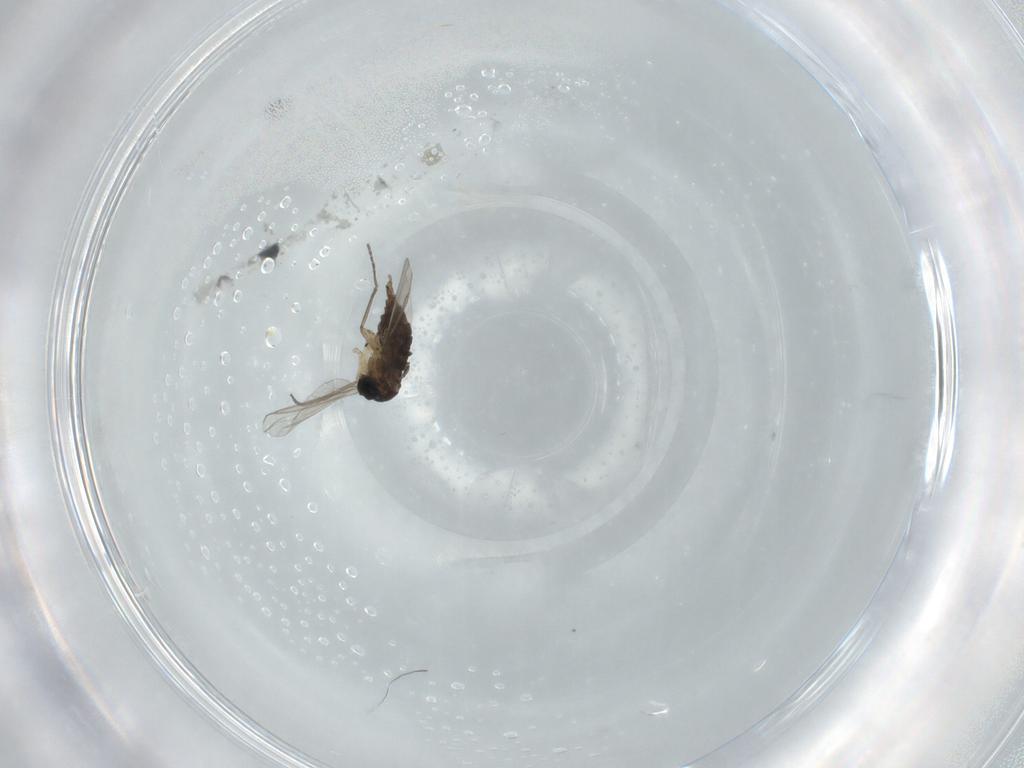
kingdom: Animalia
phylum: Arthropoda
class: Insecta
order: Diptera
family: Sciaridae
